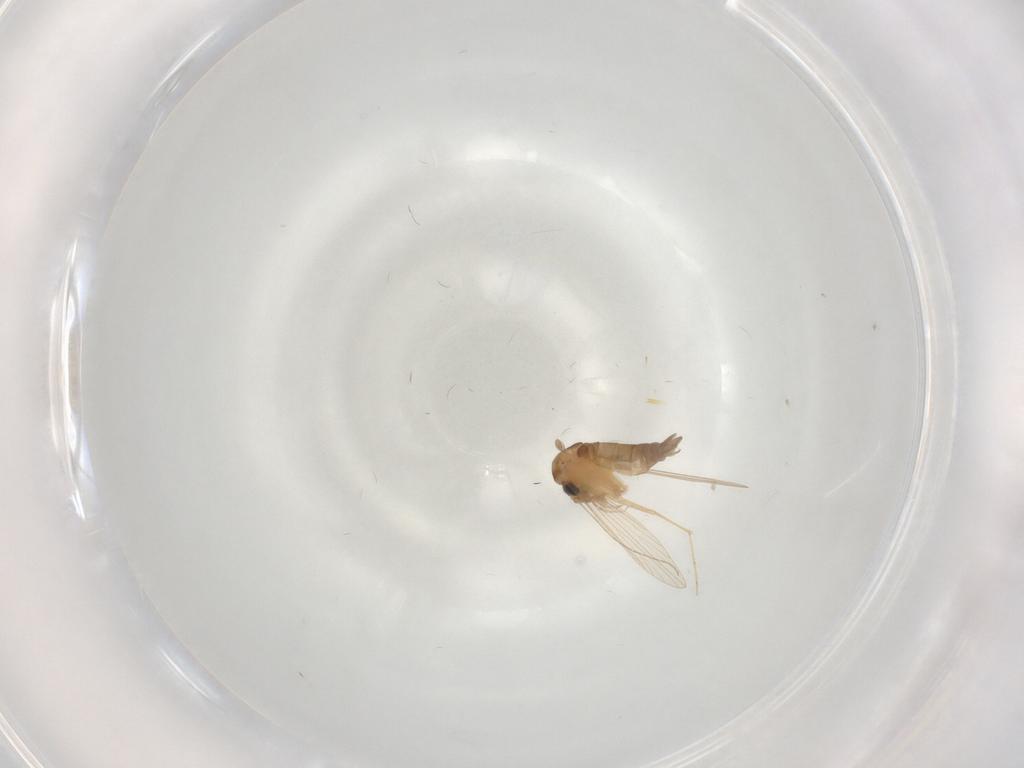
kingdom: Animalia
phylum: Arthropoda
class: Insecta
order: Diptera
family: Psychodidae
